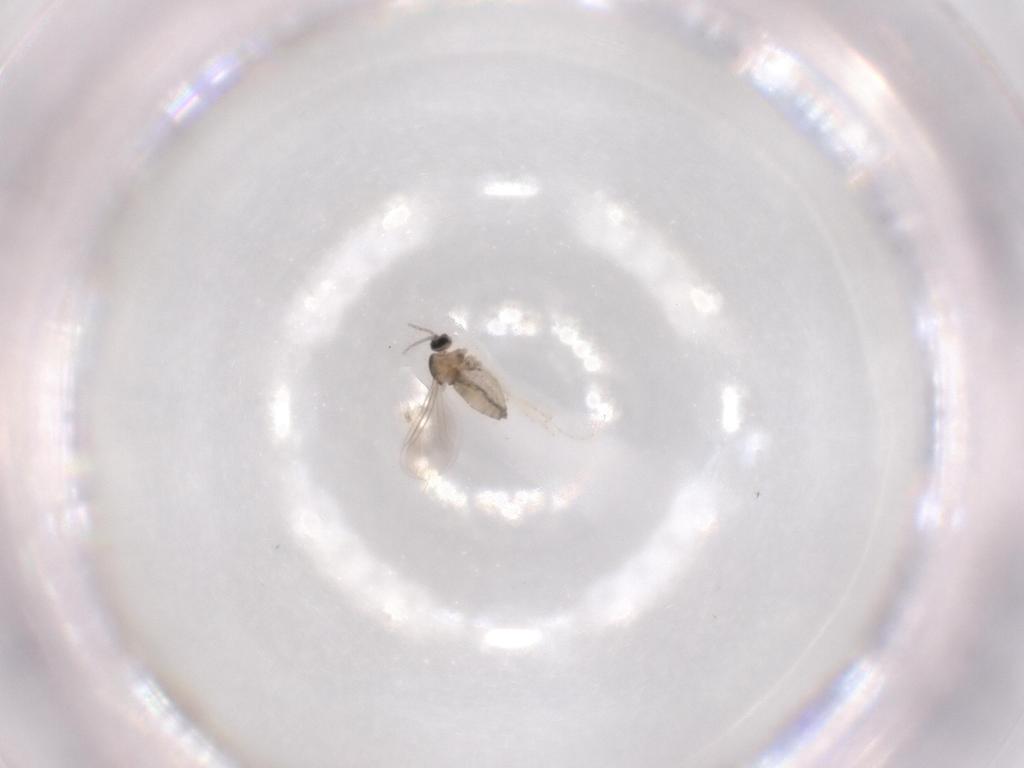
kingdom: Animalia
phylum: Arthropoda
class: Insecta
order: Diptera
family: Cecidomyiidae
